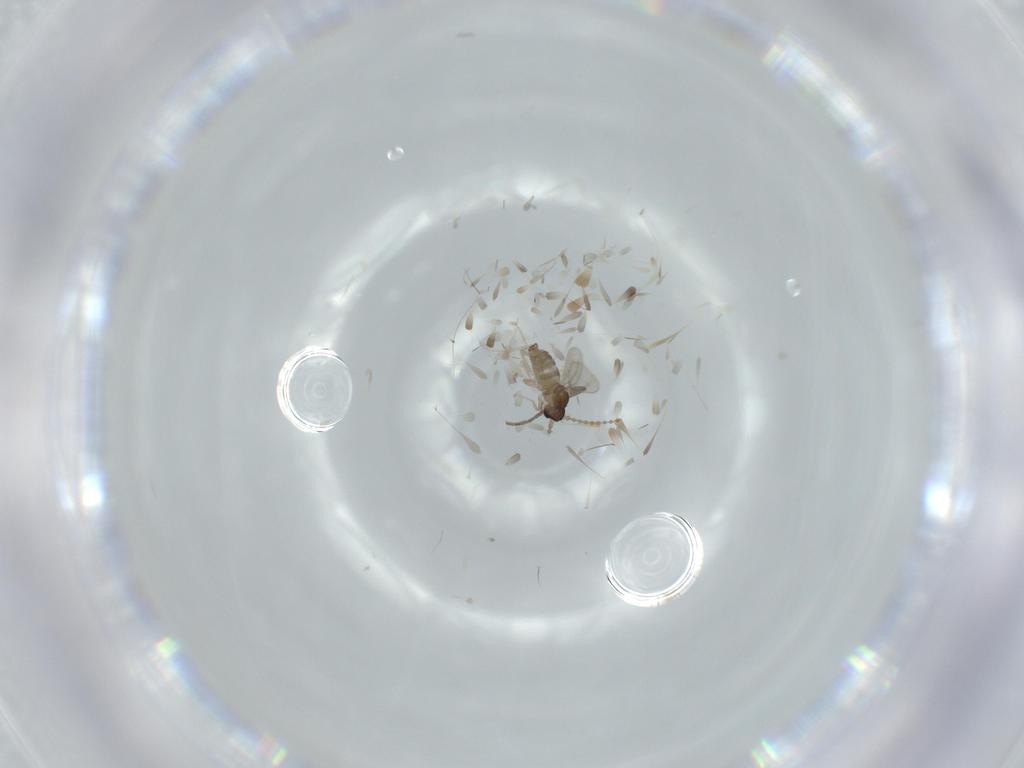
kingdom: Animalia
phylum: Arthropoda
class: Insecta
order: Diptera
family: Cecidomyiidae
